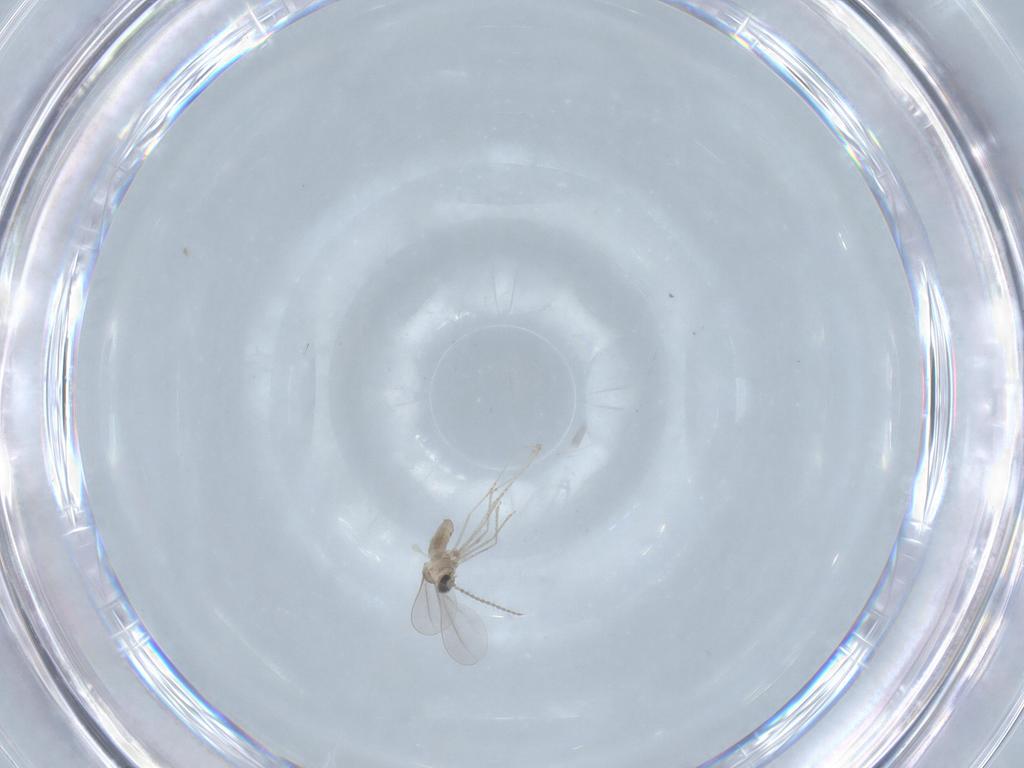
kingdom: Animalia
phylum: Arthropoda
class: Insecta
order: Diptera
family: Cecidomyiidae
